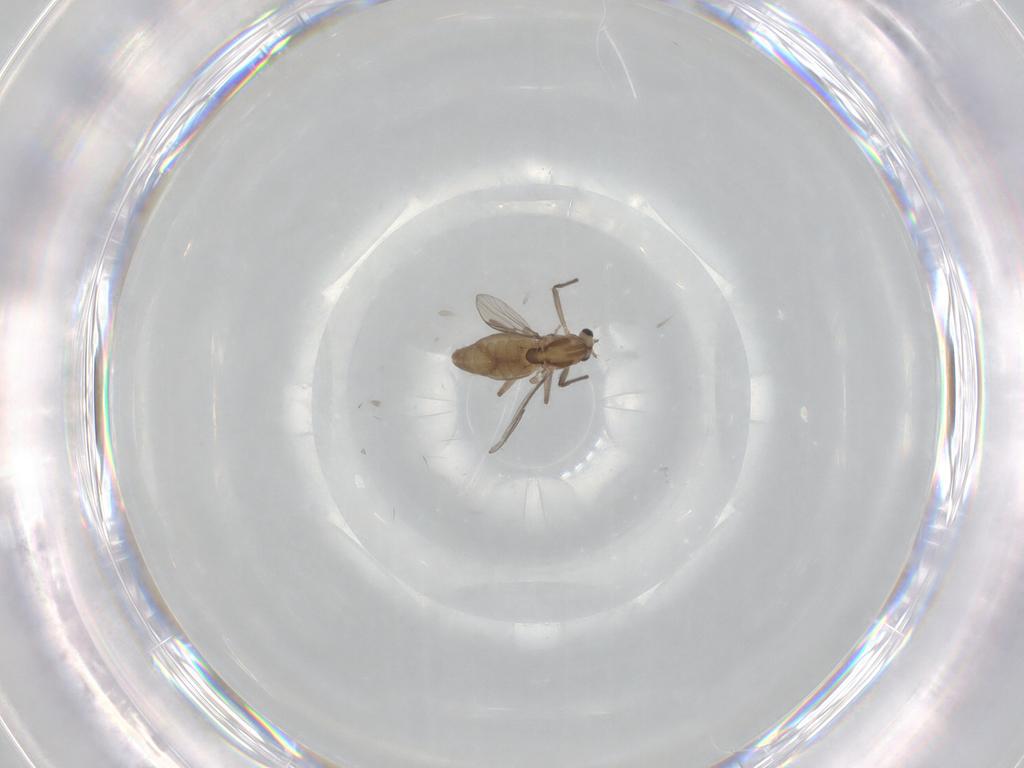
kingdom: Animalia
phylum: Arthropoda
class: Insecta
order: Diptera
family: Chironomidae
